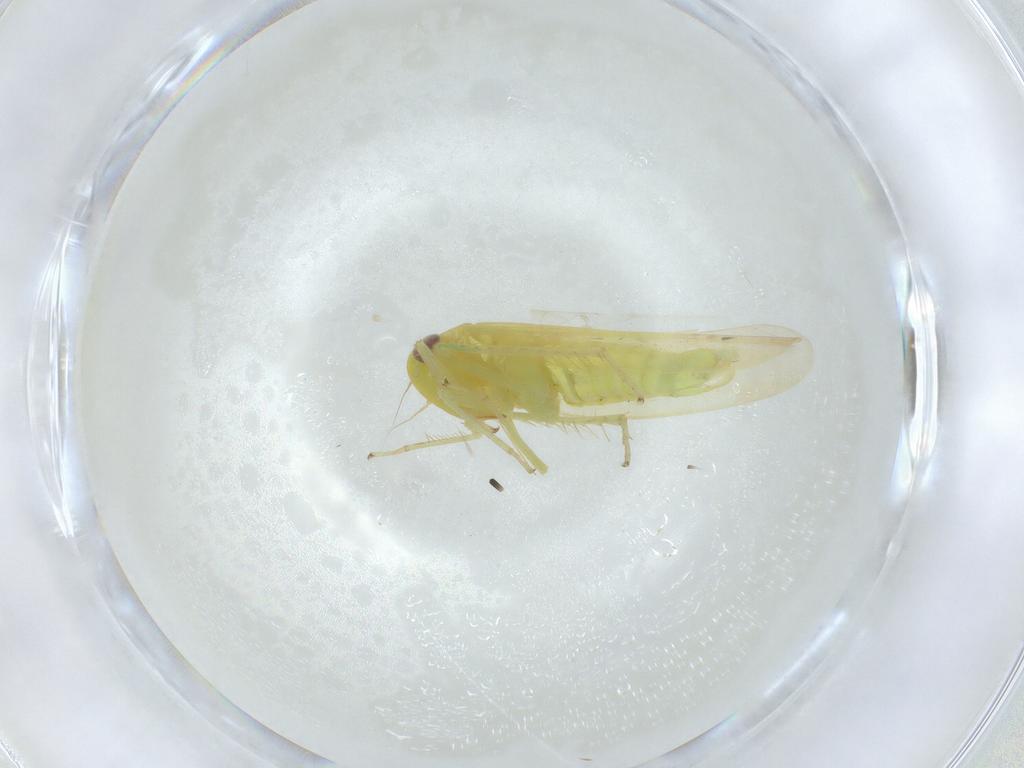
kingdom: Animalia
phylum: Arthropoda
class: Insecta
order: Hemiptera
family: Cicadellidae
